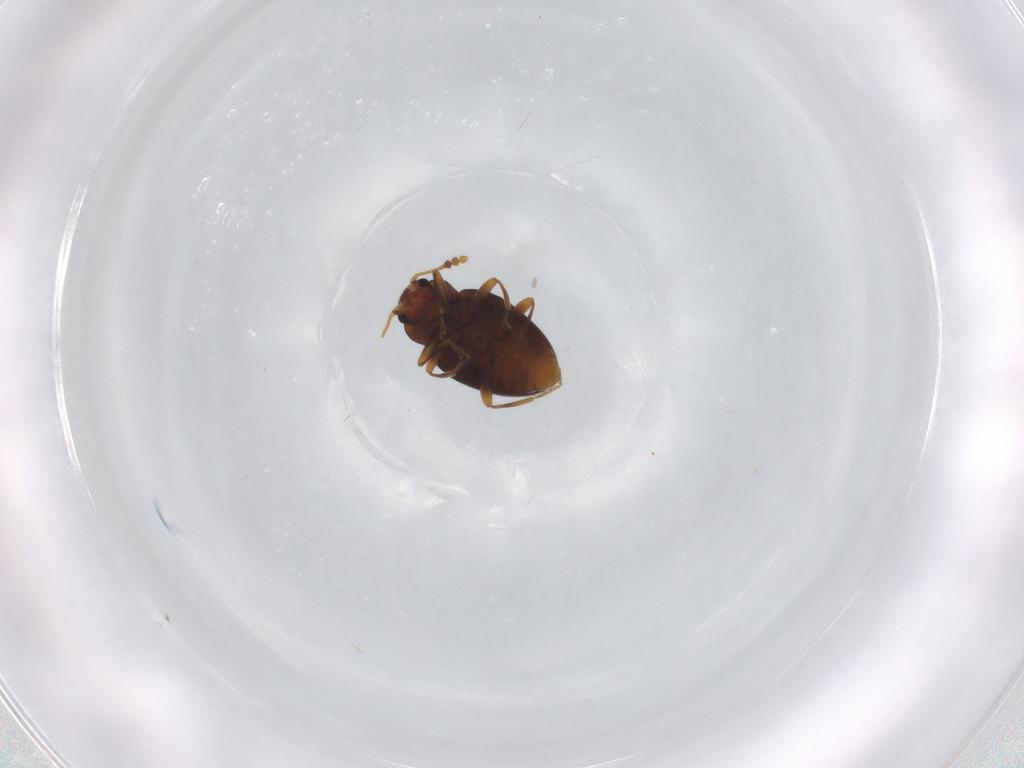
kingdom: Animalia
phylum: Arthropoda
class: Insecta
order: Coleoptera
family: Erotylidae
